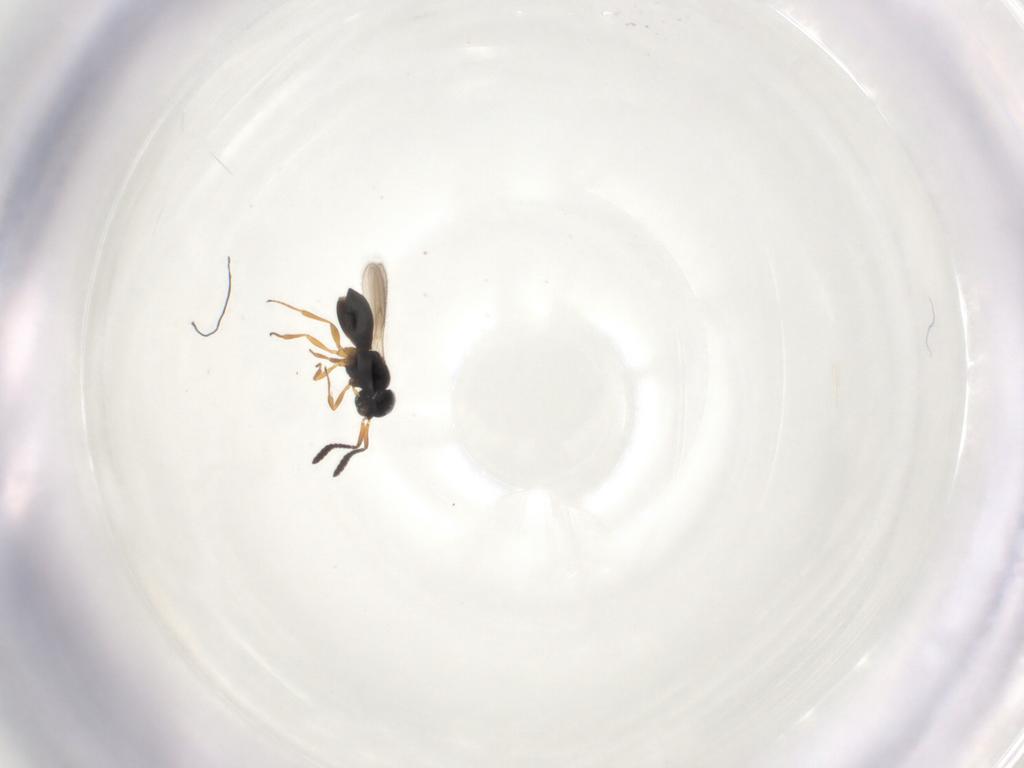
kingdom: Animalia
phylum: Arthropoda
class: Insecta
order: Hymenoptera
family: Scelionidae
